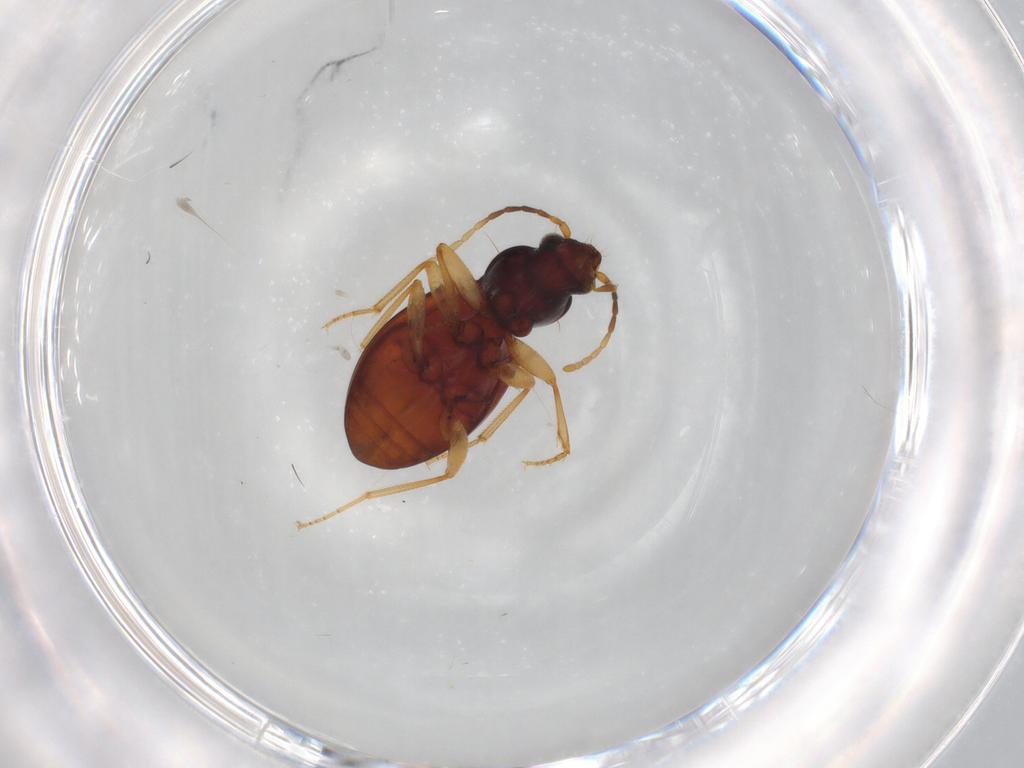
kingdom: Animalia
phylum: Arthropoda
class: Insecta
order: Coleoptera
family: Carabidae
